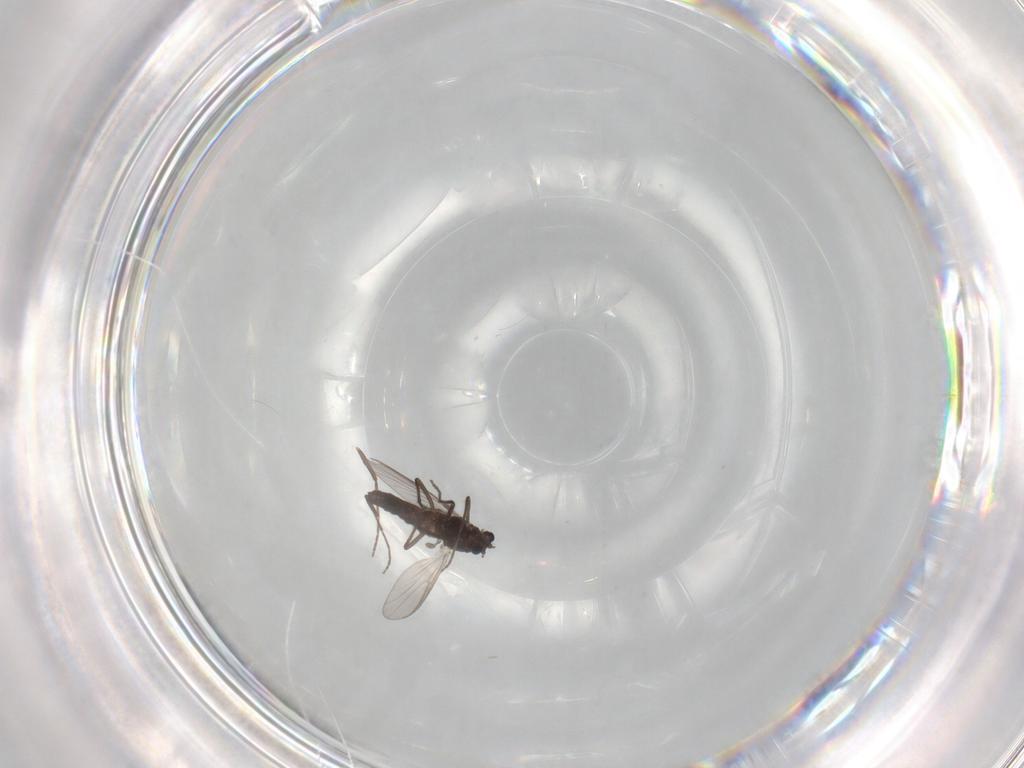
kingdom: Animalia
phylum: Arthropoda
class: Insecta
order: Diptera
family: Chironomidae
